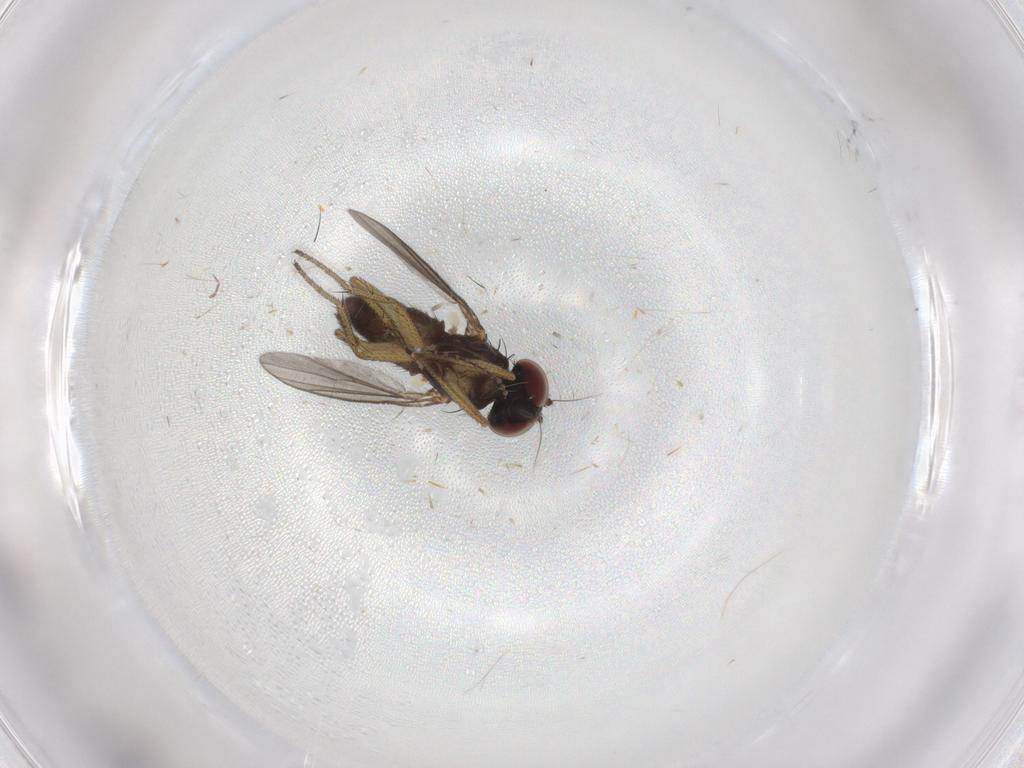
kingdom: Animalia
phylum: Arthropoda
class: Insecta
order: Diptera
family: Dolichopodidae
